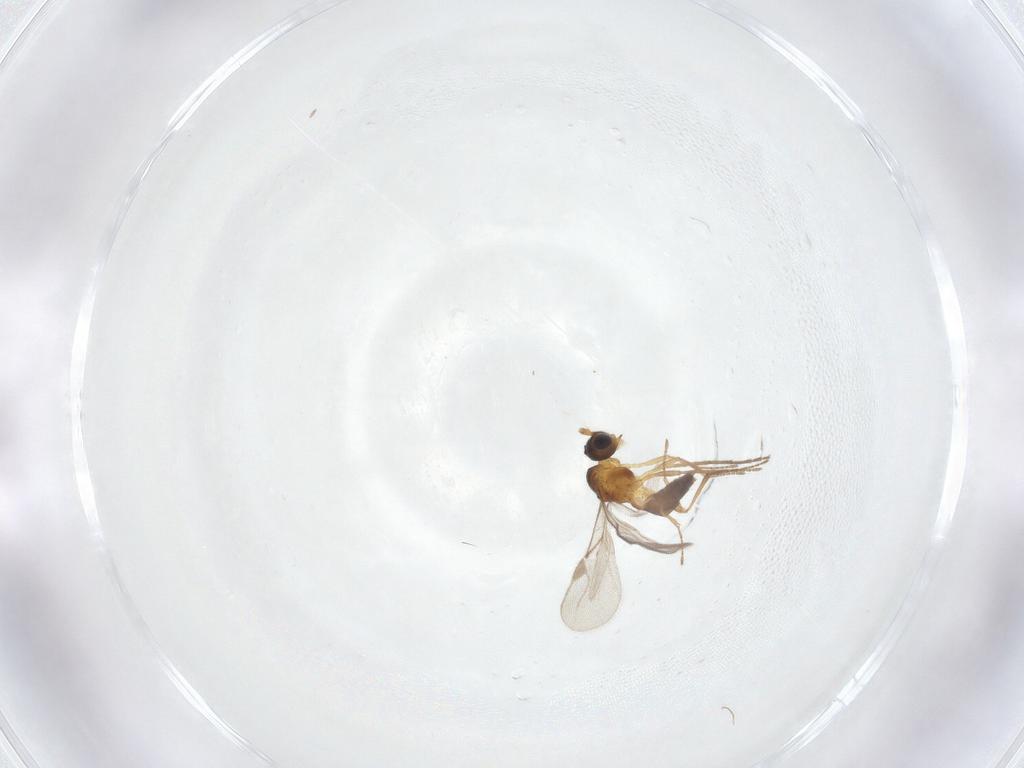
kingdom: Animalia
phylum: Arthropoda
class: Insecta
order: Hymenoptera
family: Braconidae
